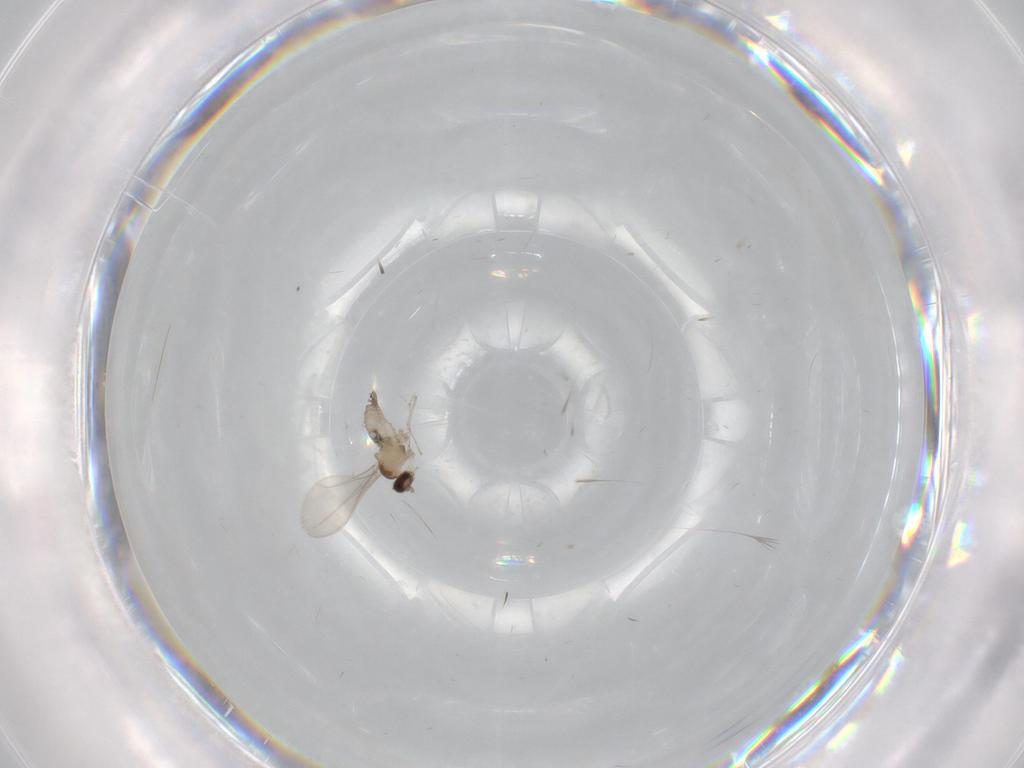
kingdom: Animalia
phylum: Arthropoda
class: Insecta
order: Diptera
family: Cecidomyiidae
